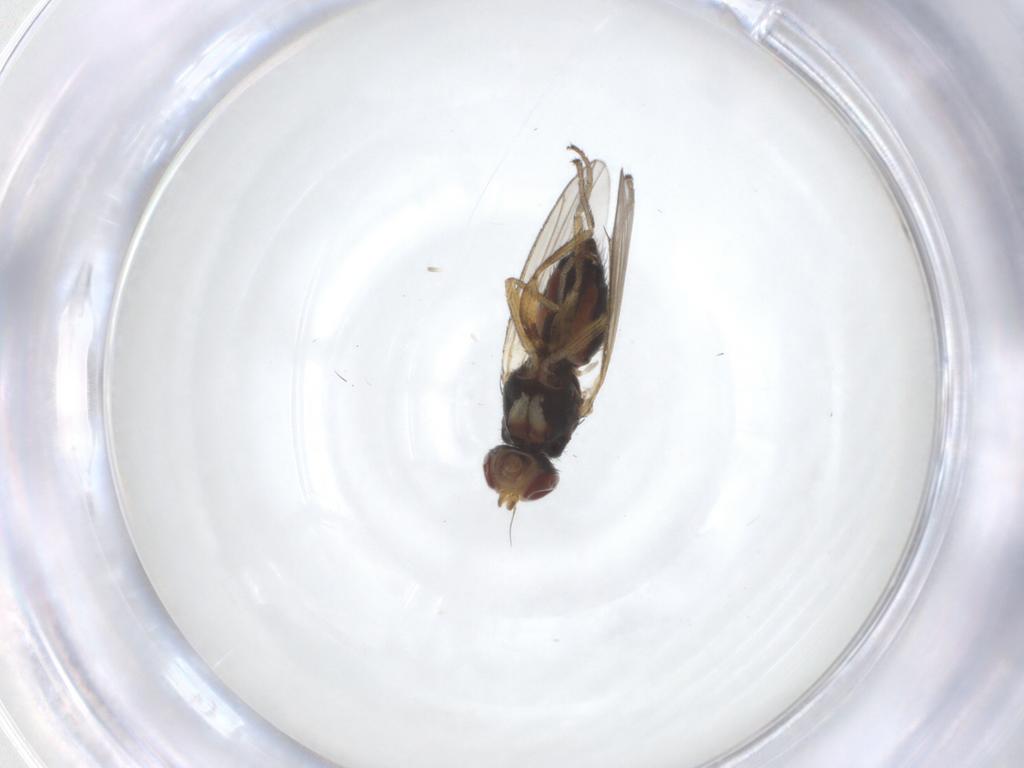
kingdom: Animalia
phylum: Arthropoda
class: Insecta
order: Diptera
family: Heleomyzidae
